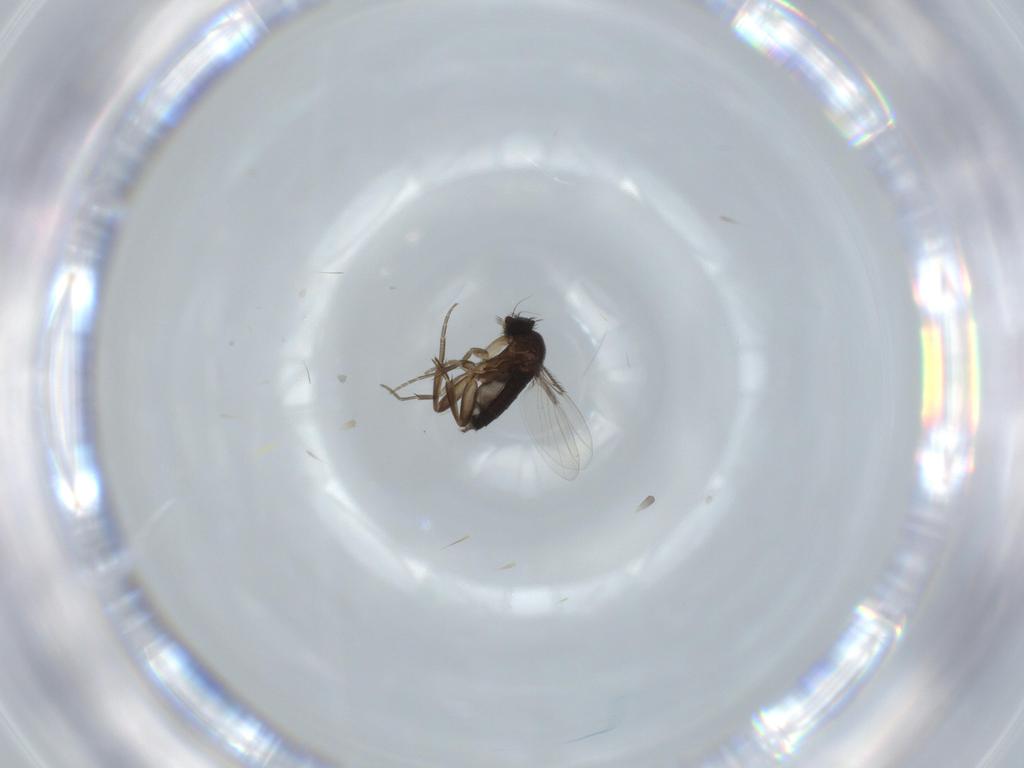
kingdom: Animalia
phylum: Arthropoda
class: Insecta
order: Diptera
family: Phoridae
